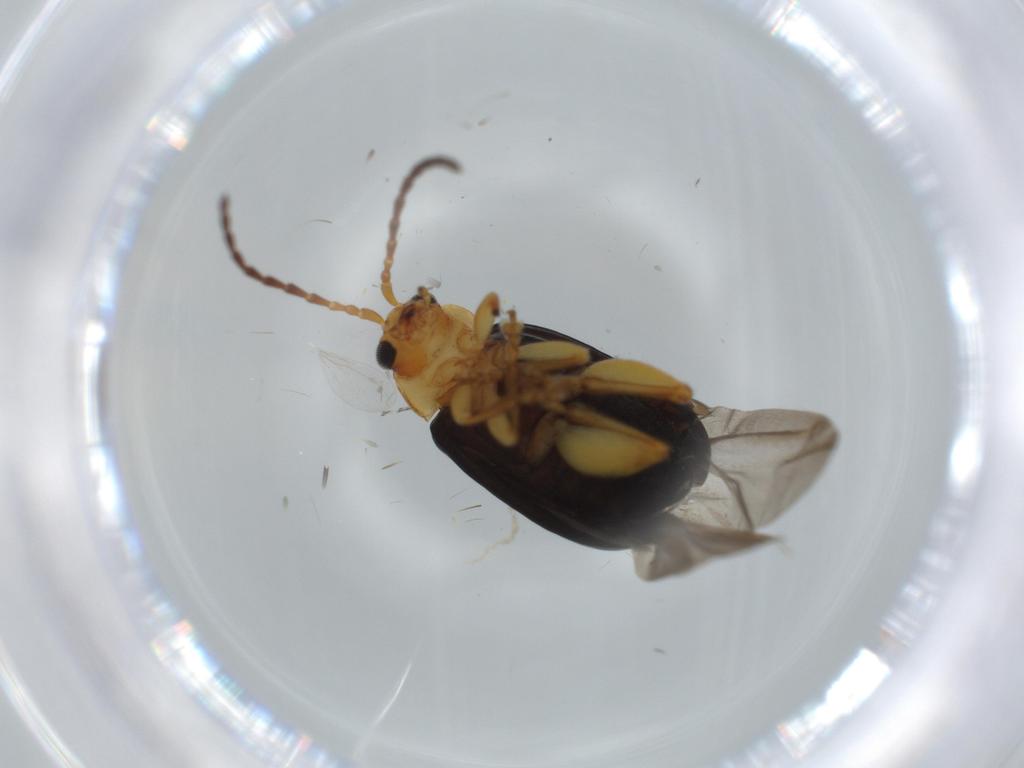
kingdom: Animalia
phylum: Arthropoda
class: Insecta
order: Coleoptera
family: Chrysomelidae
